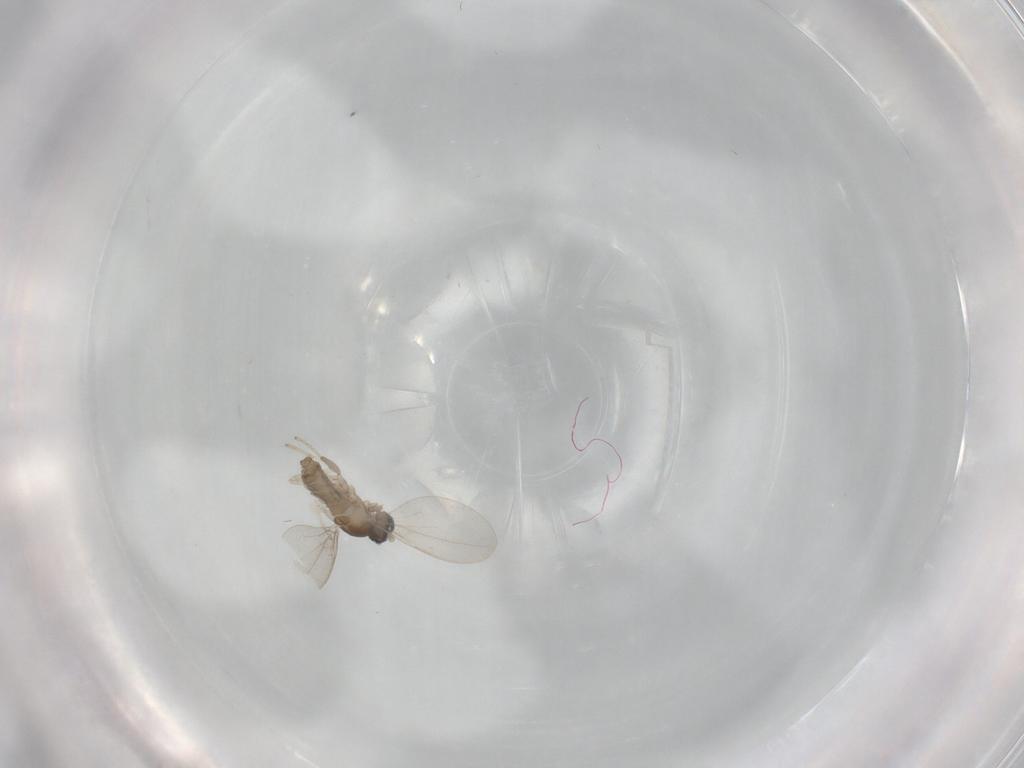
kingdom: Animalia
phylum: Arthropoda
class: Insecta
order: Diptera
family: Cecidomyiidae
